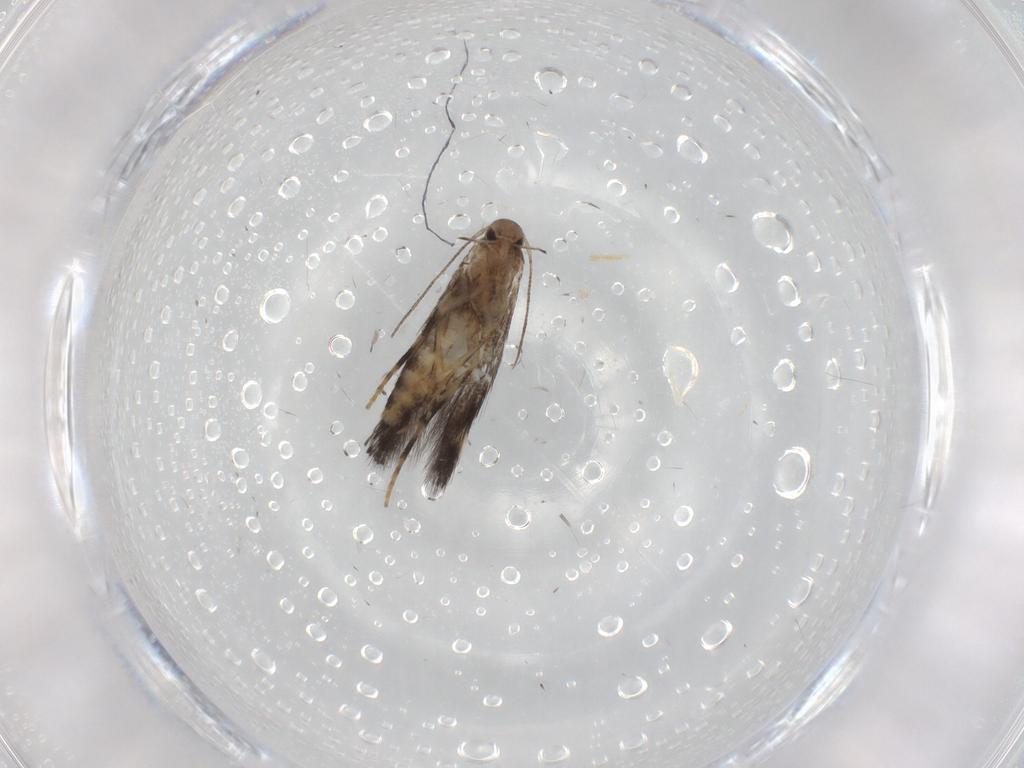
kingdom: Animalia
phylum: Arthropoda
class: Insecta
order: Lepidoptera
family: Elachistidae
